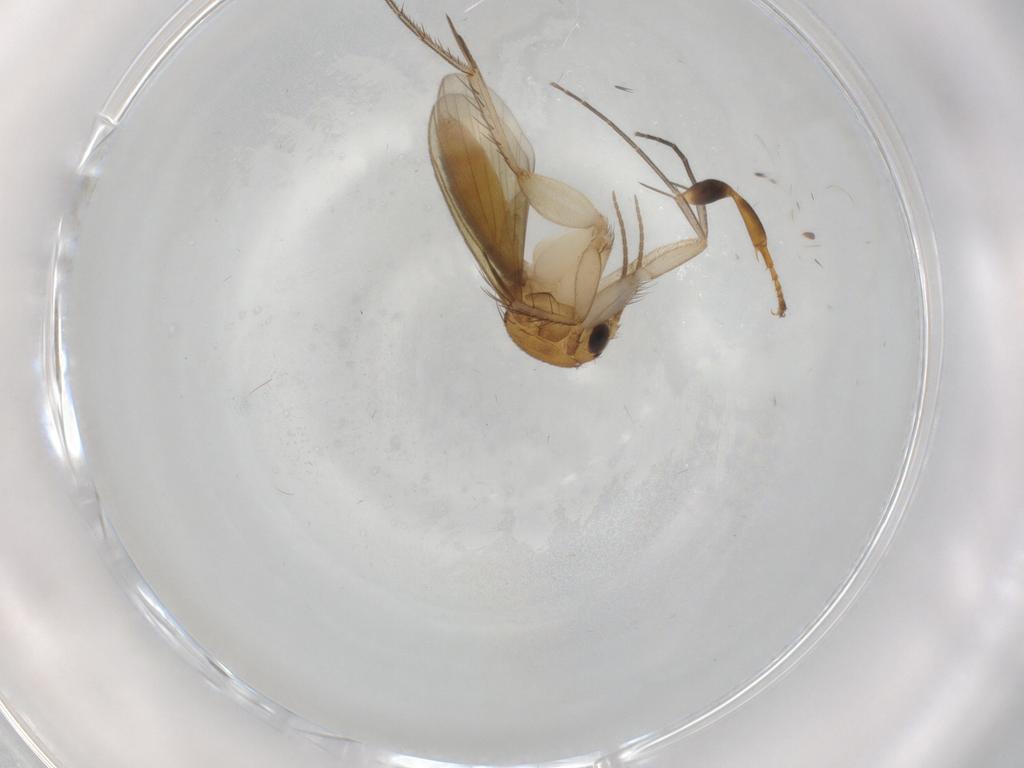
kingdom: Animalia
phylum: Arthropoda
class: Insecta
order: Diptera
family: Mycetophilidae
